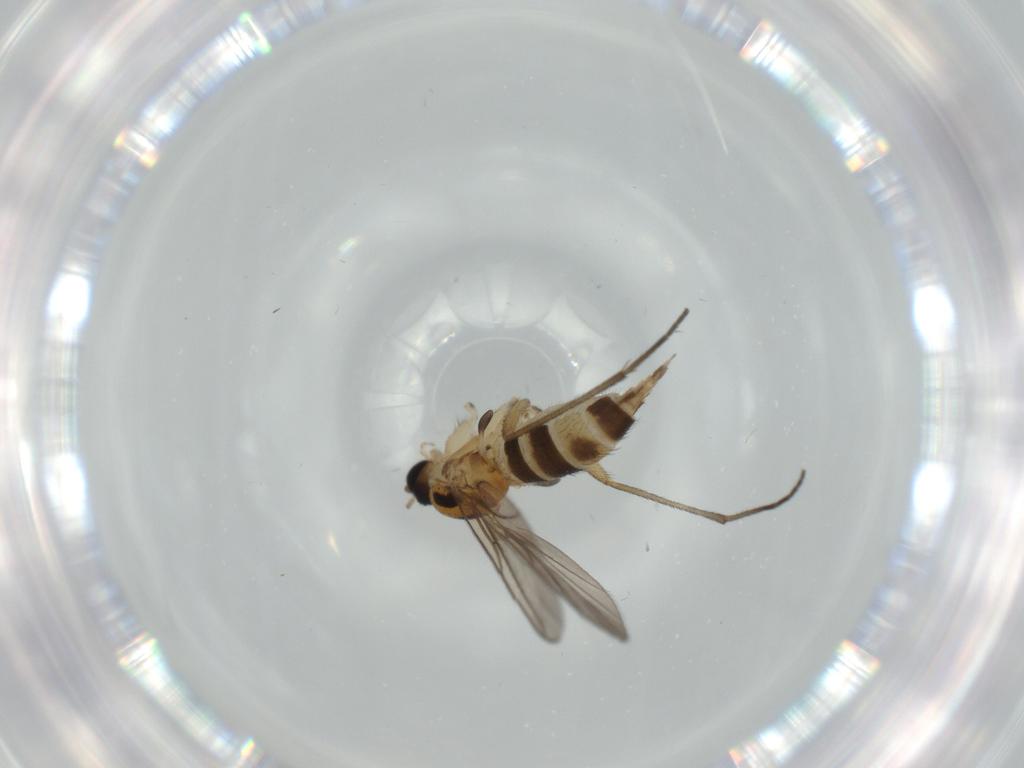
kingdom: Animalia
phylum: Arthropoda
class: Insecta
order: Diptera
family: Sciaridae
